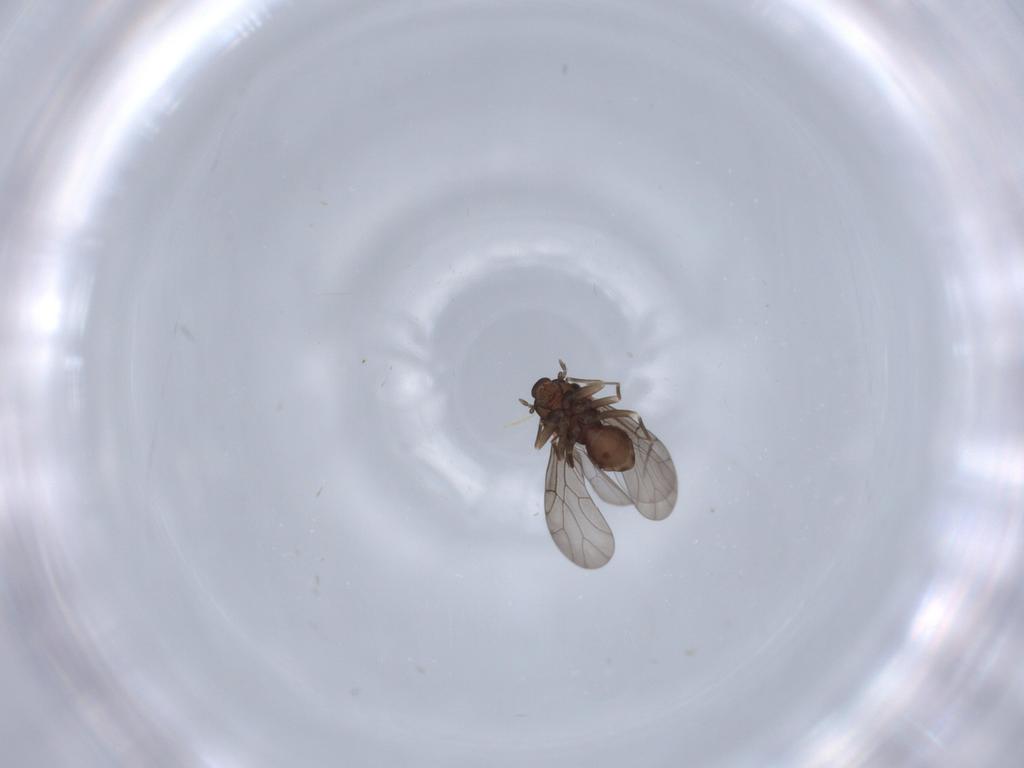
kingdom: Animalia
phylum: Arthropoda
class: Insecta
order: Psocodea
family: Lepidopsocidae
